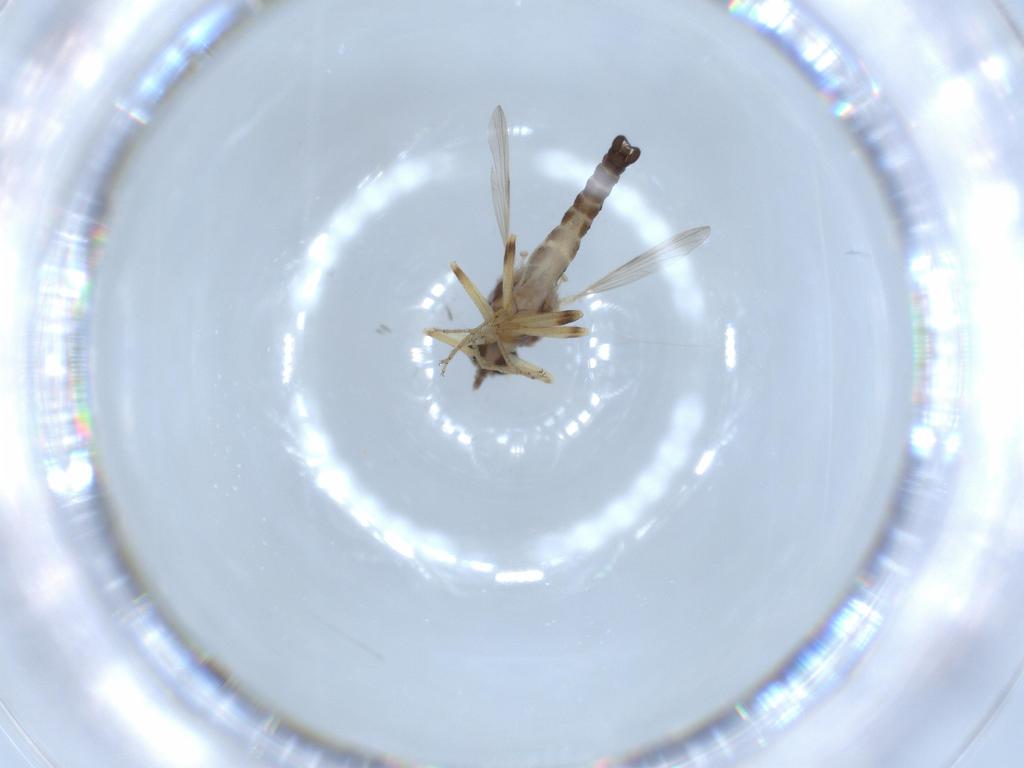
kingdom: Animalia
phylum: Arthropoda
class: Insecta
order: Diptera
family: Ceratopogonidae
